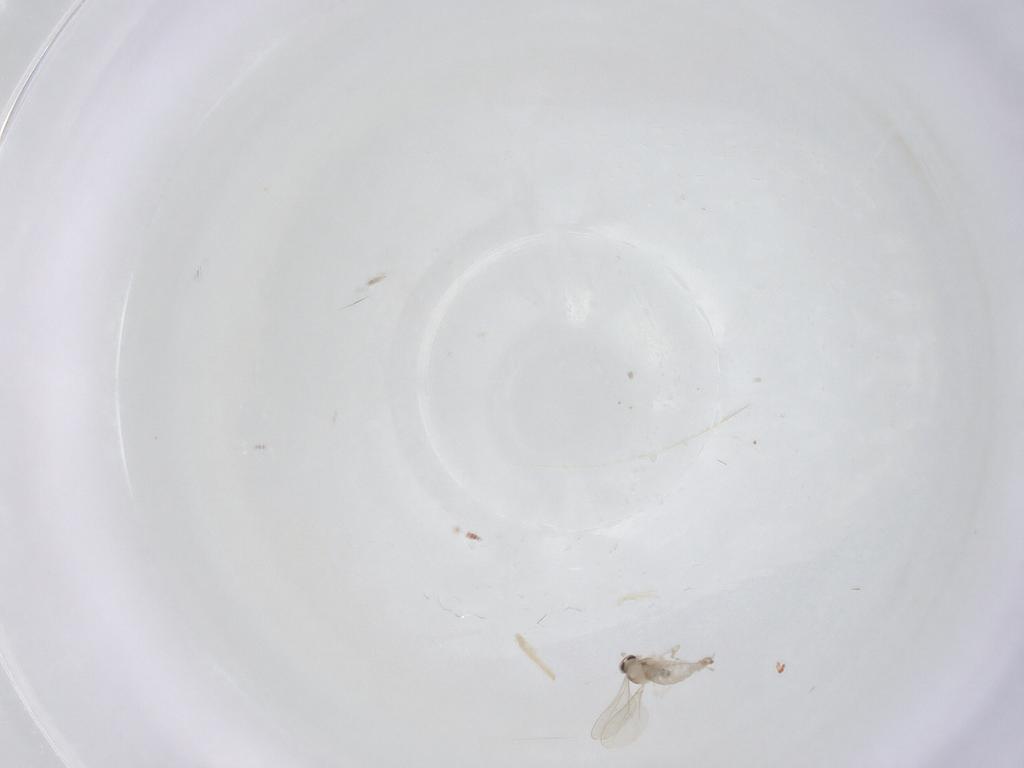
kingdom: Animalia
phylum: Arthropoda
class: Insecta
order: Diptera
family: Cecidomyiidae
